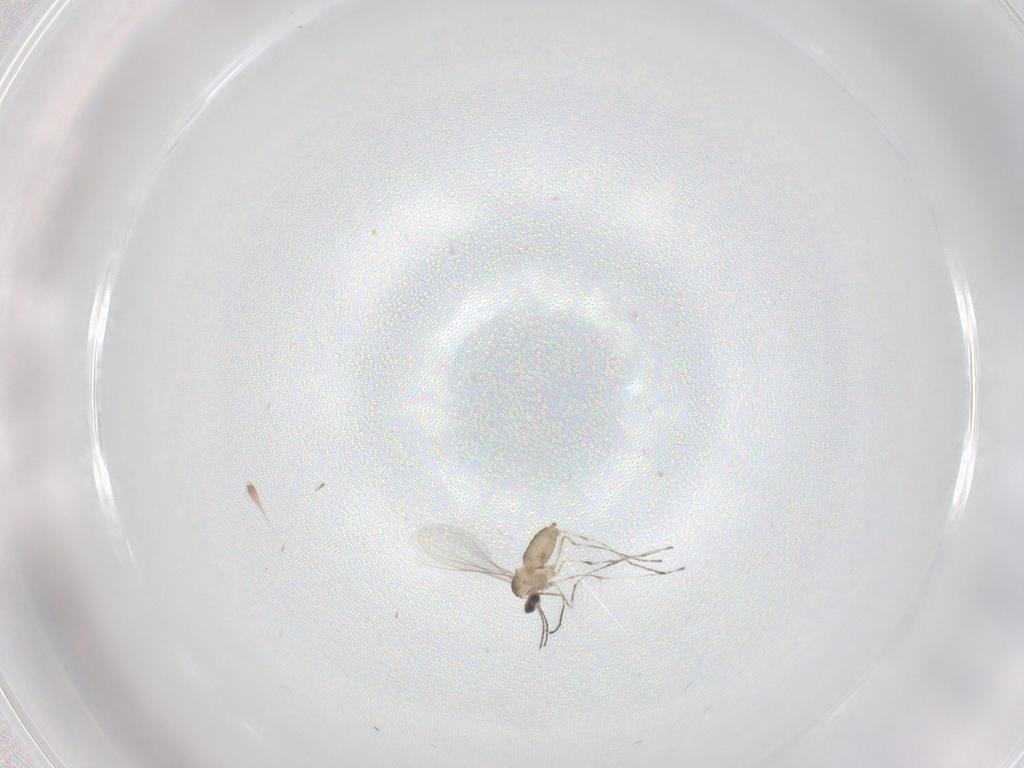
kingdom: Animalia
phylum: Arthropoda
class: Insecta
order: Diptera
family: Cecidomyiidae
